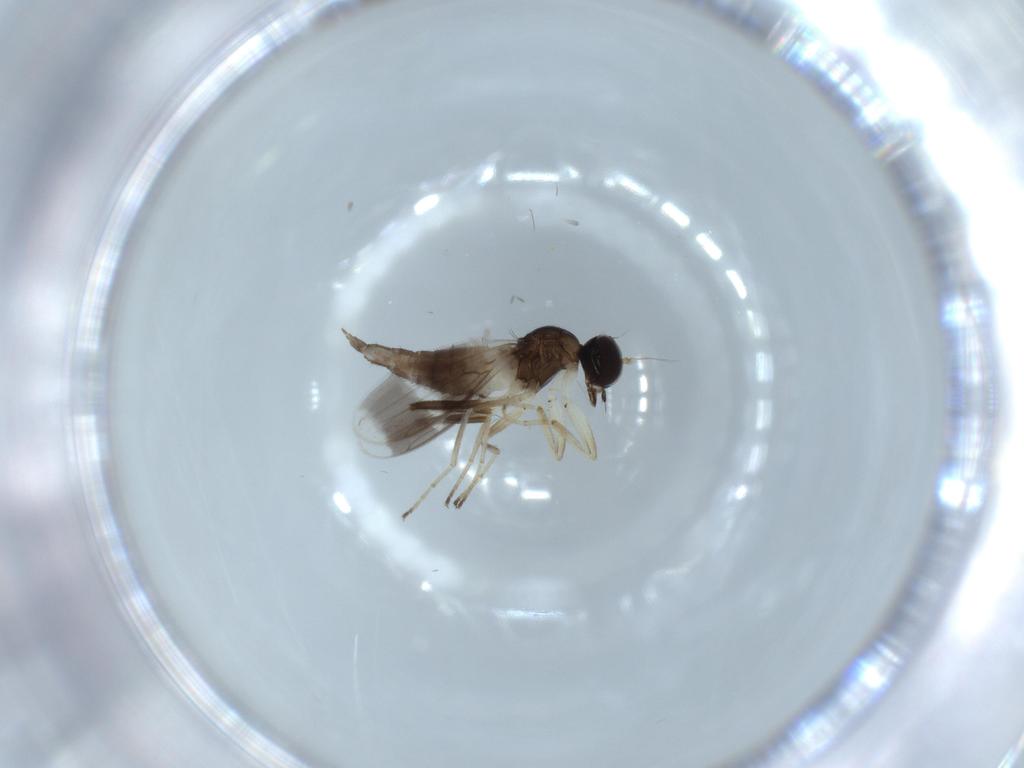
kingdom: Animalia
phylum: Arthropoda
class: Insecta
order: Diptera
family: Hybotidae
